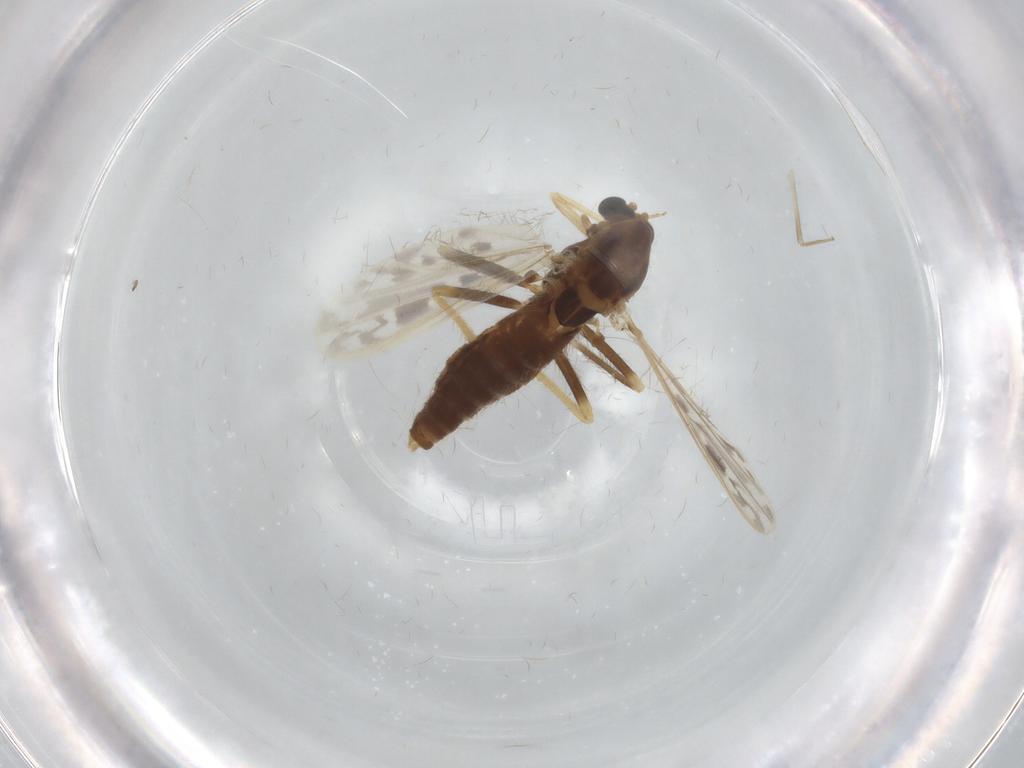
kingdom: Animalia
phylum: Arthropoda
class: Insecta
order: Diptera
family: Chironomidae
